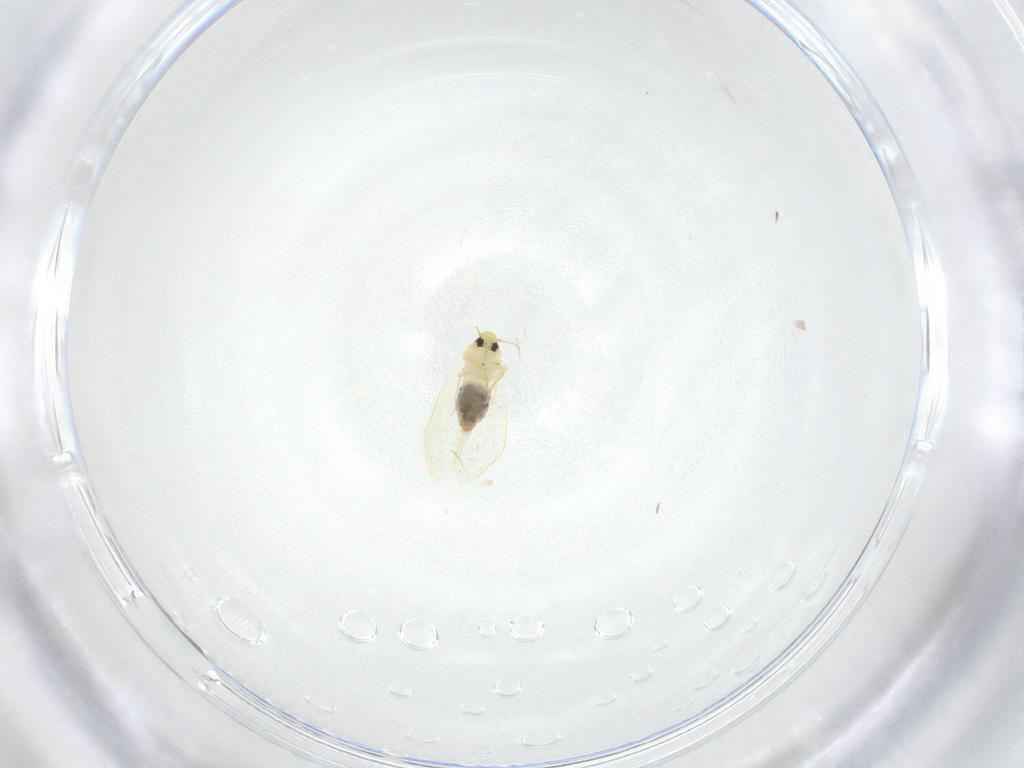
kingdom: Animalia
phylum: Arthropoda
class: Insecta
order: Hemiptera
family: Aleyrodidae
